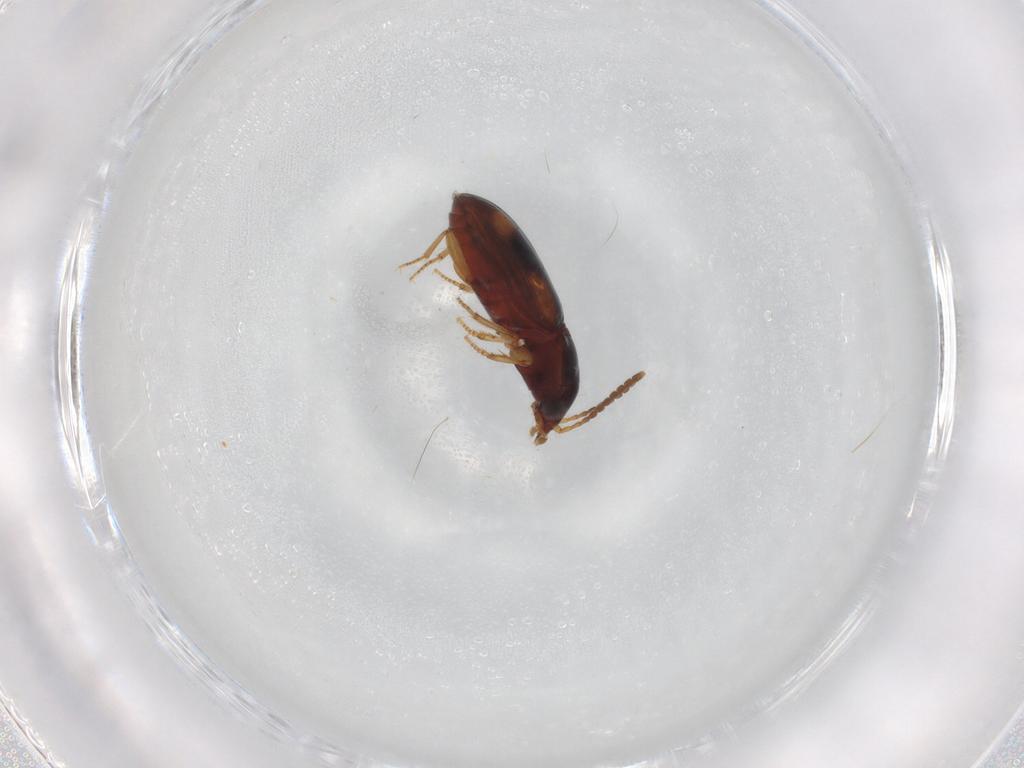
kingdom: Animalia
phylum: Arthropoda
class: Insecta
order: Coleoptera
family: Carabidae
